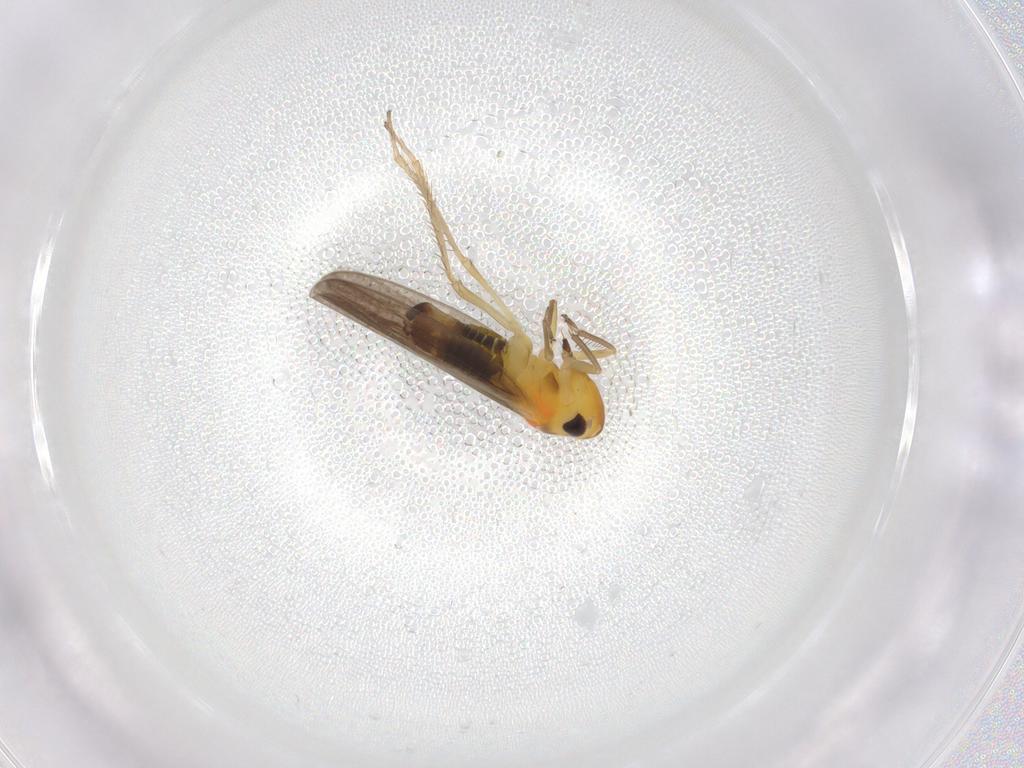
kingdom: Animalia
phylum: Arthropoda
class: Insecta
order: Hemiptera
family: Cicadellidae
